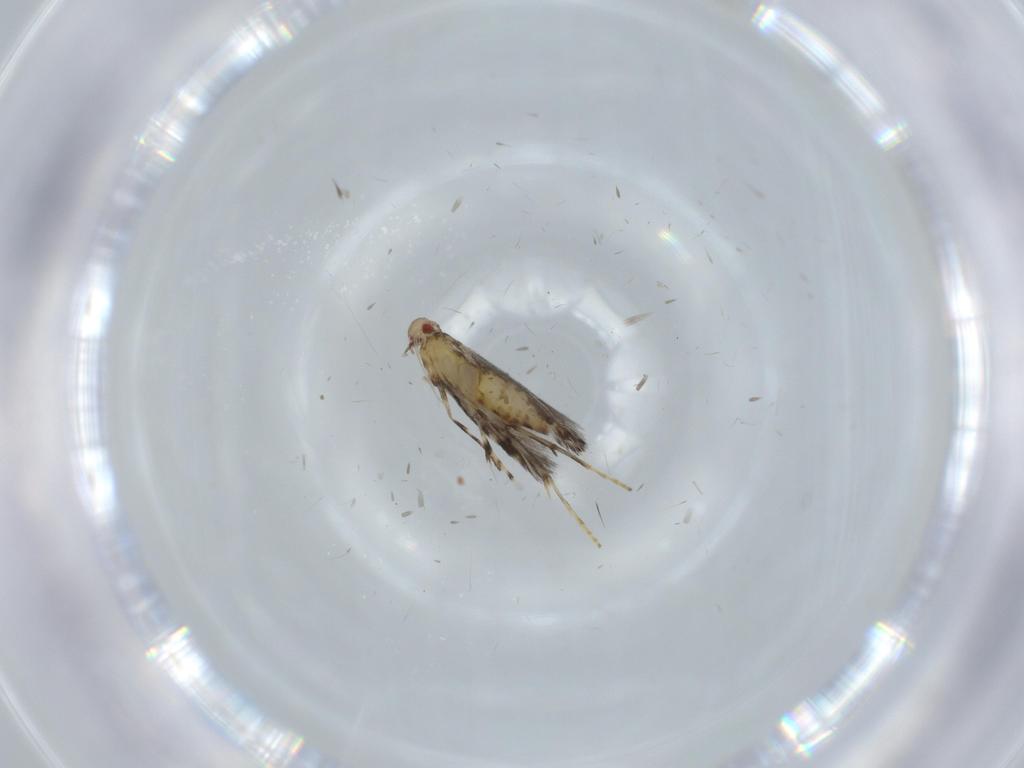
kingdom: Animalia
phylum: Arthropoda
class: Insecta
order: Lepidoptera
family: Gracillariidae
